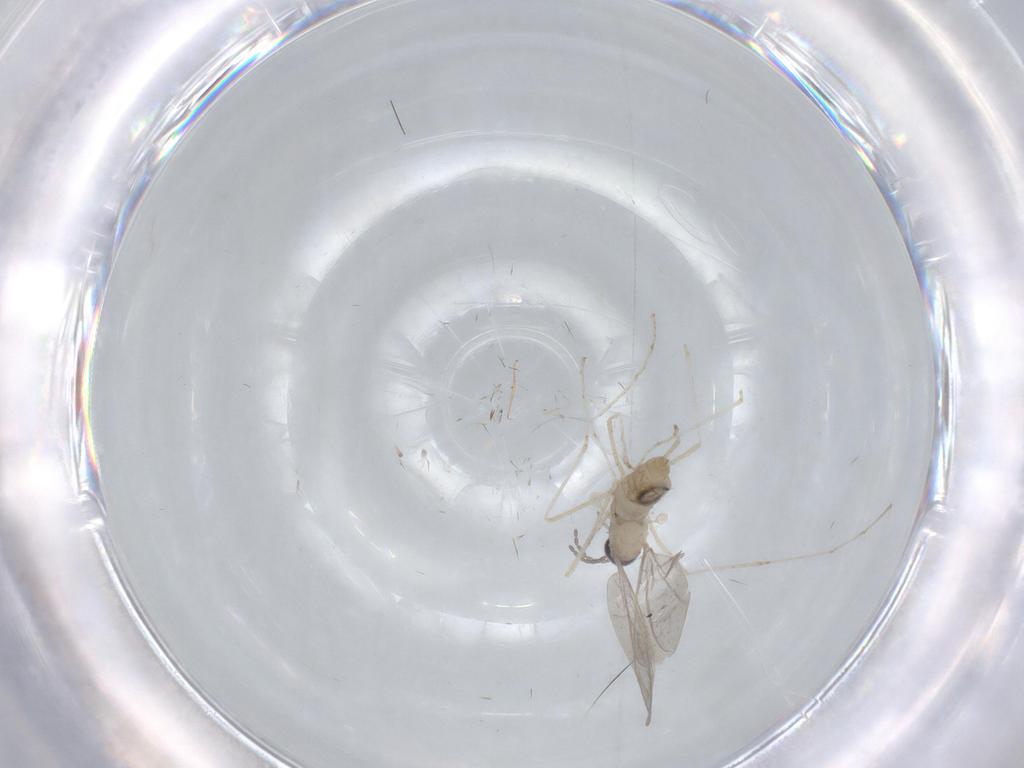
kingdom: Animalia
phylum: Arthropoda
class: Insecta
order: Diptera
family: Cecidomyiidae
